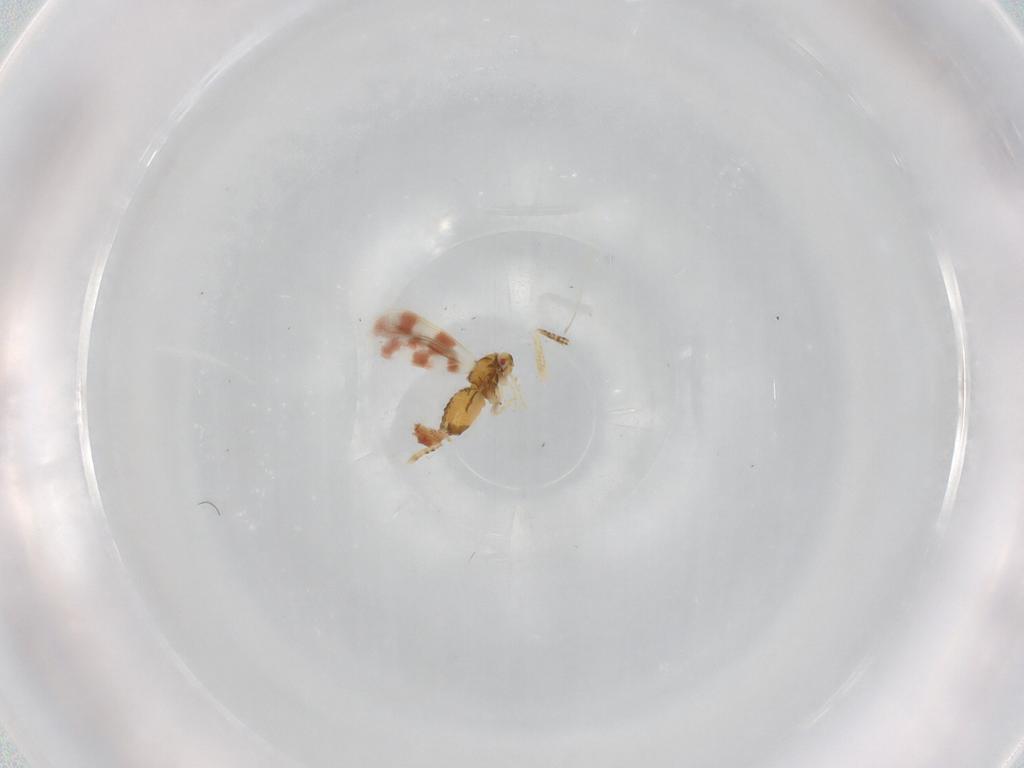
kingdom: Animalia
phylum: Arthropoda
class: Insecta
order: Hemiptera
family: Aleyrodidae
